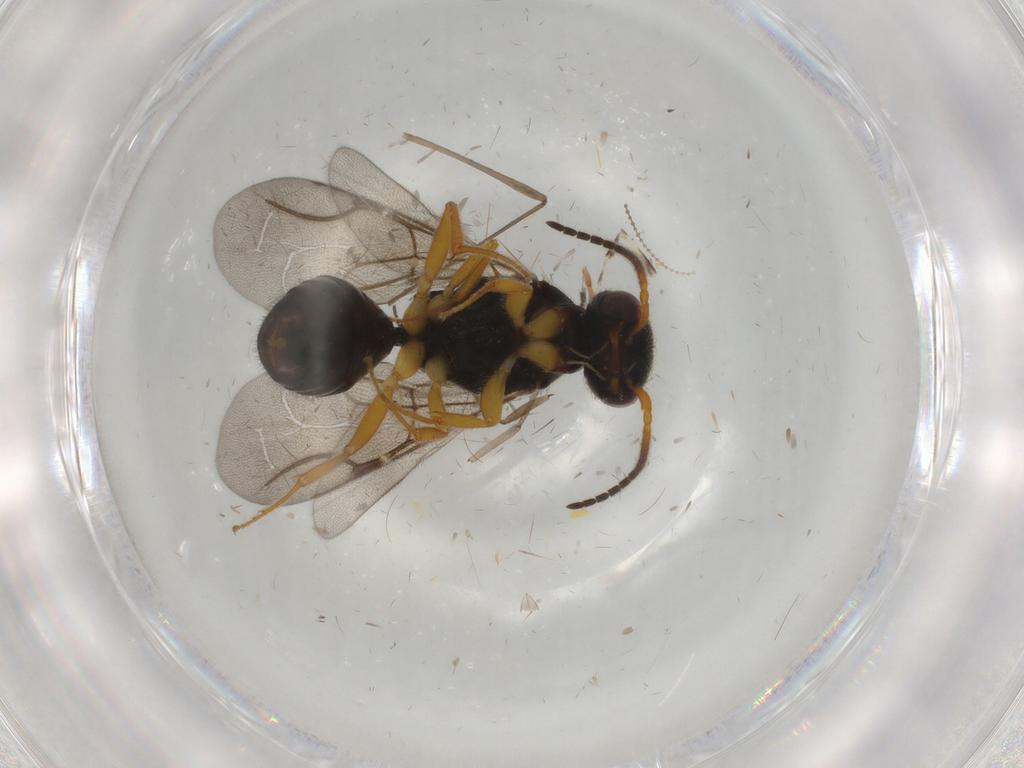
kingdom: Animalia
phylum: Arthropoda
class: Insecta
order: Hymenoptera
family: Bethylidae
